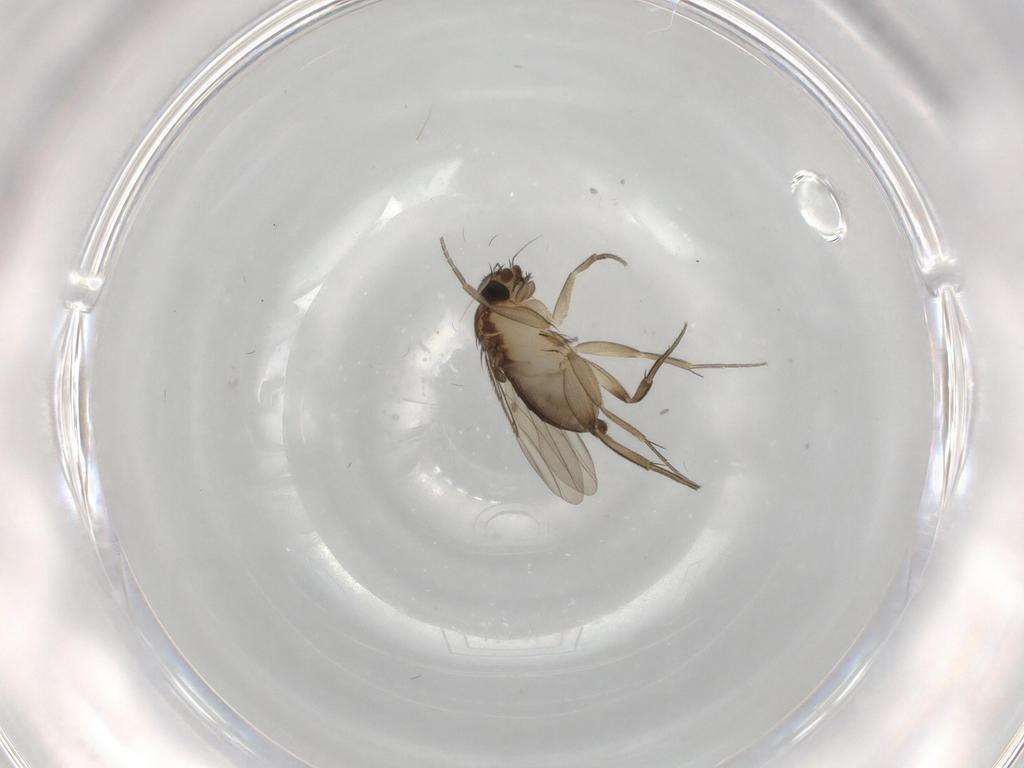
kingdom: Animalia
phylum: Arthropoda
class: Insecta
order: Diptera
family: Phoridae
